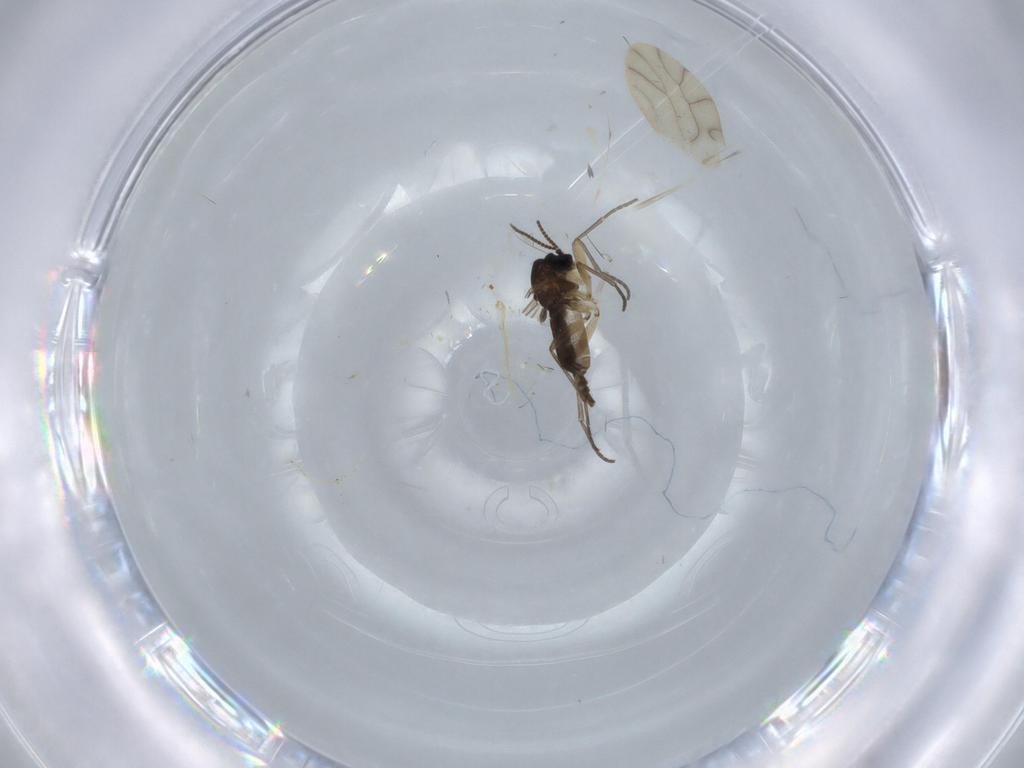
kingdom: Animalia
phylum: Arthropoda
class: Insecta
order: Diptera
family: Sciaridae
